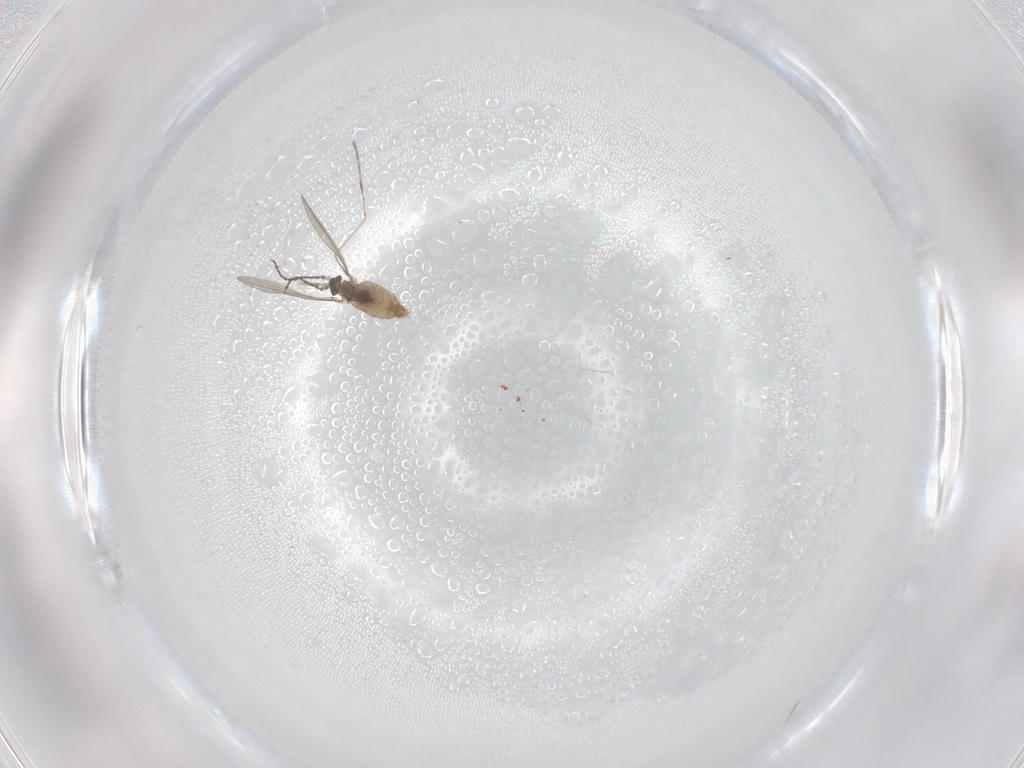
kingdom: Animalia
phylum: Arthropoda
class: Insecta
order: Diptera
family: Cecidomyiidae
